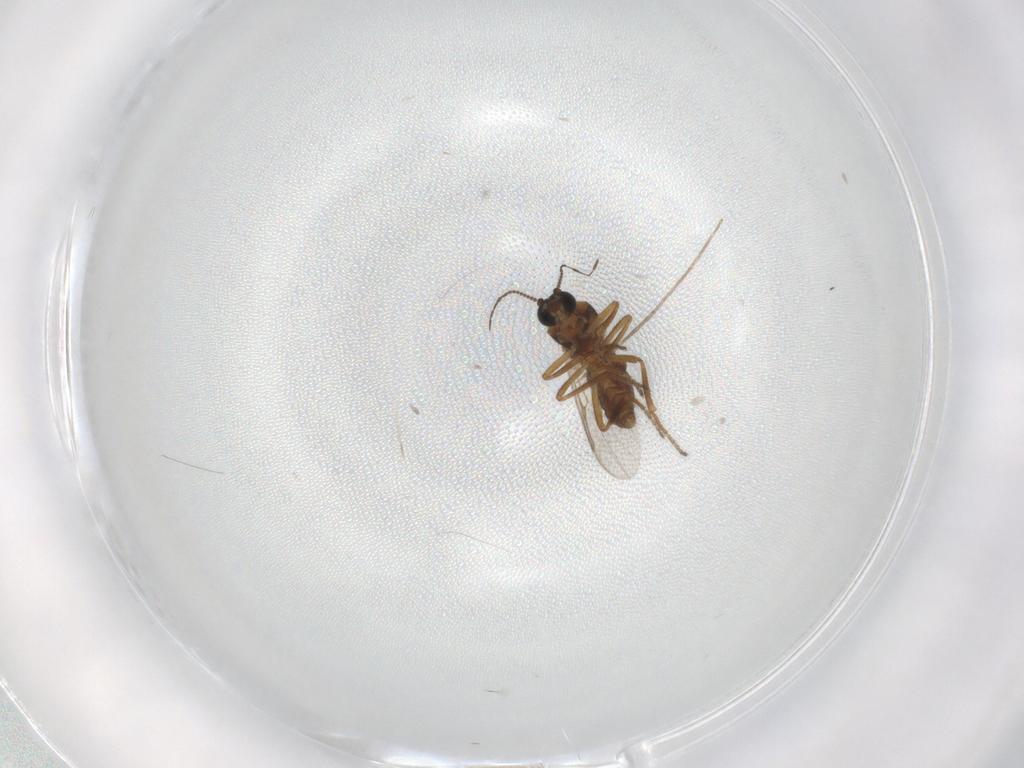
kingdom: Animalia
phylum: Arthropoda
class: Insecta
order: Diptera
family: Ceratopogonidae
